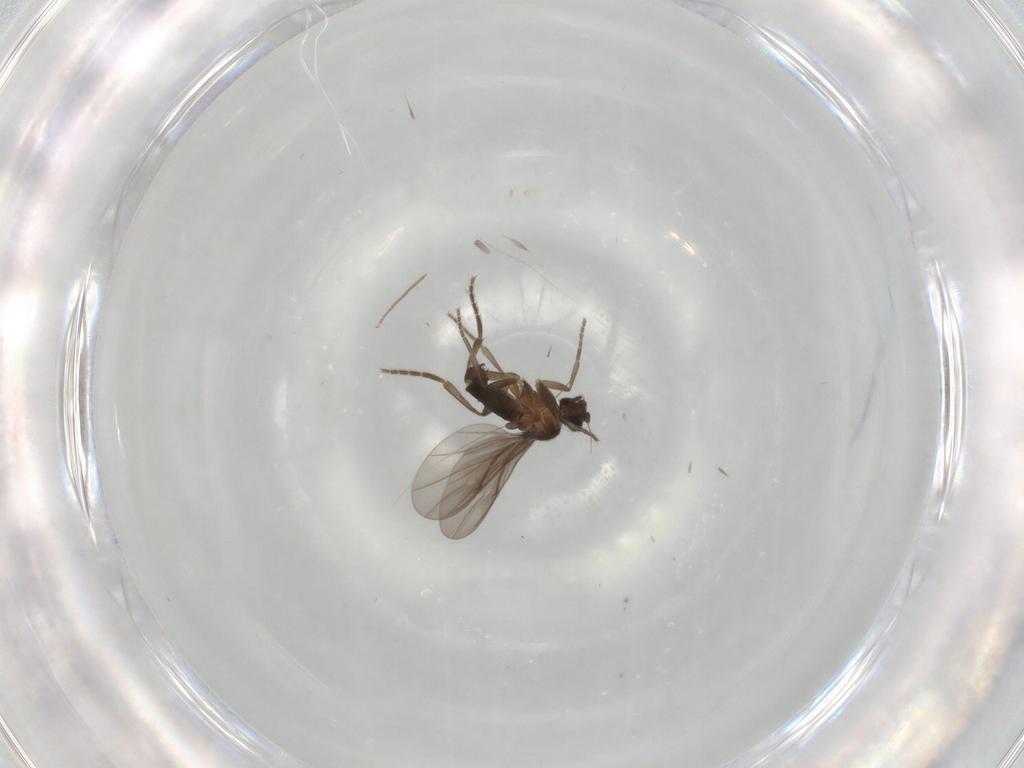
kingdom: Animalia
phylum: Arthropoda
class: Insecta
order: Diptera
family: Phoridae
